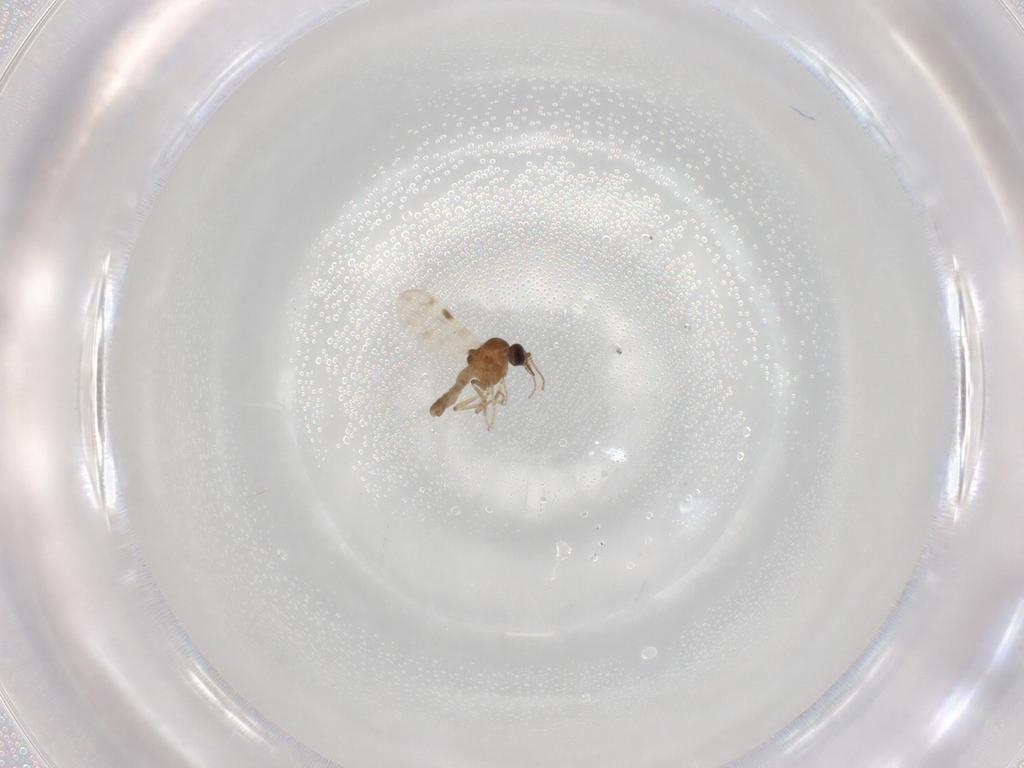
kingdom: Animalia
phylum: Arthropoda
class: Insecta
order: Diptera
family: Ceratopogonidae
